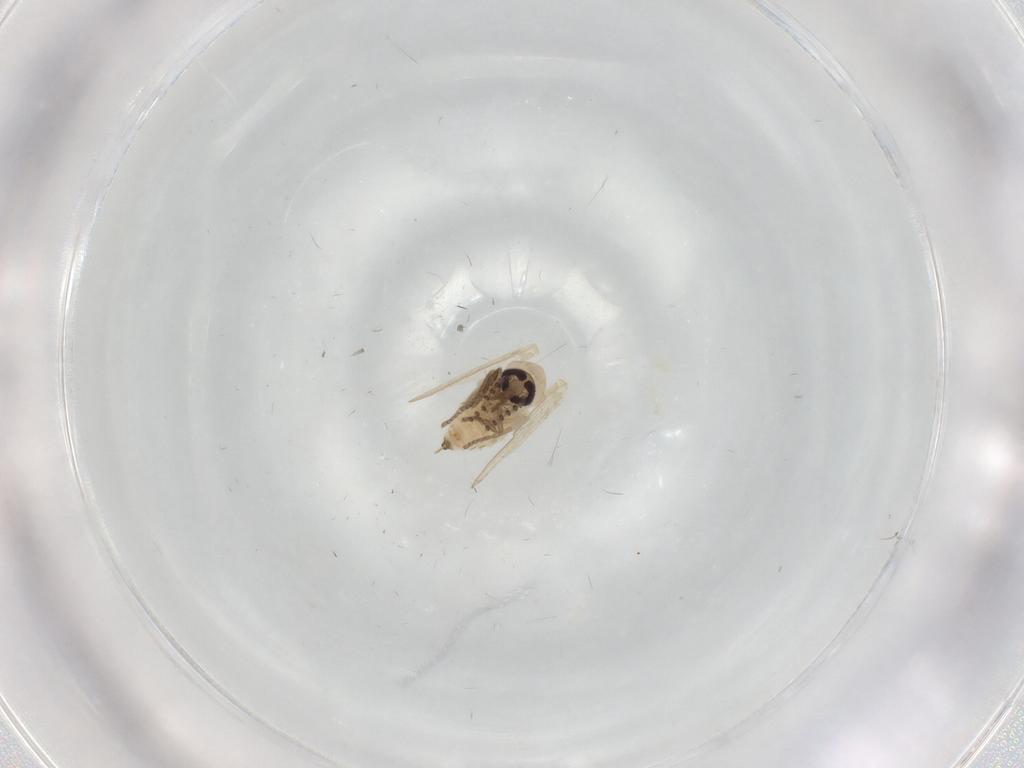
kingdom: Animalia
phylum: Arthropoda
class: Insecta
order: Diptera
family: Psychodidae
